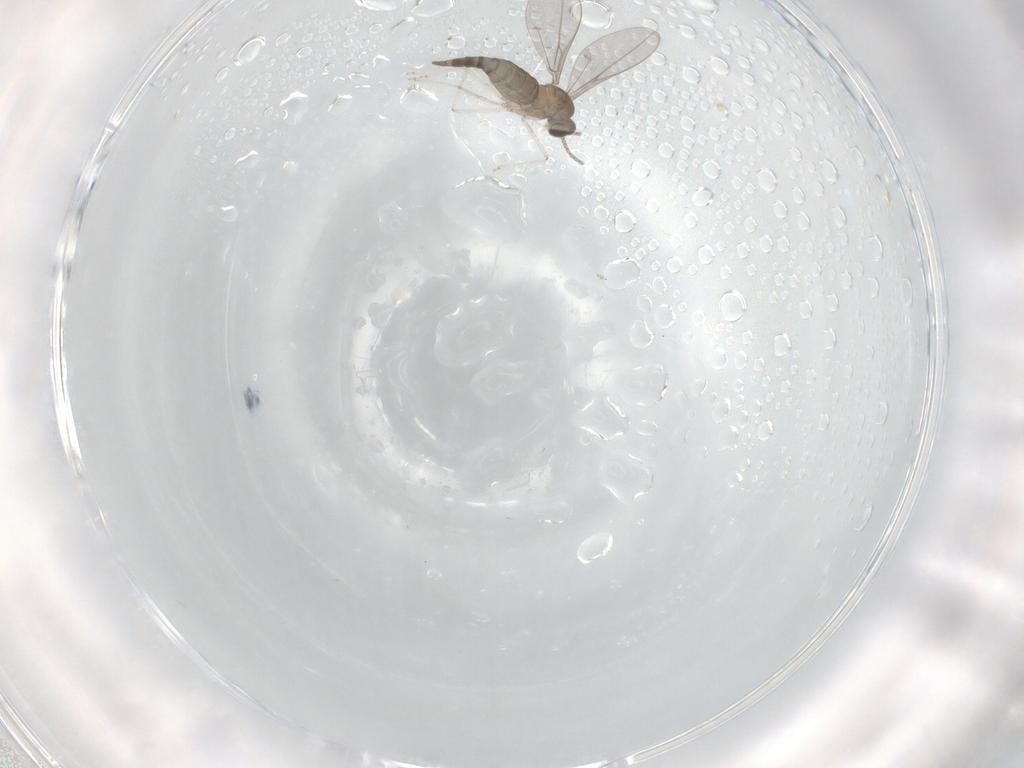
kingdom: Animalia
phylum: Arthropoda
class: Insecta
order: Diptera
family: Cecidomyiidae
